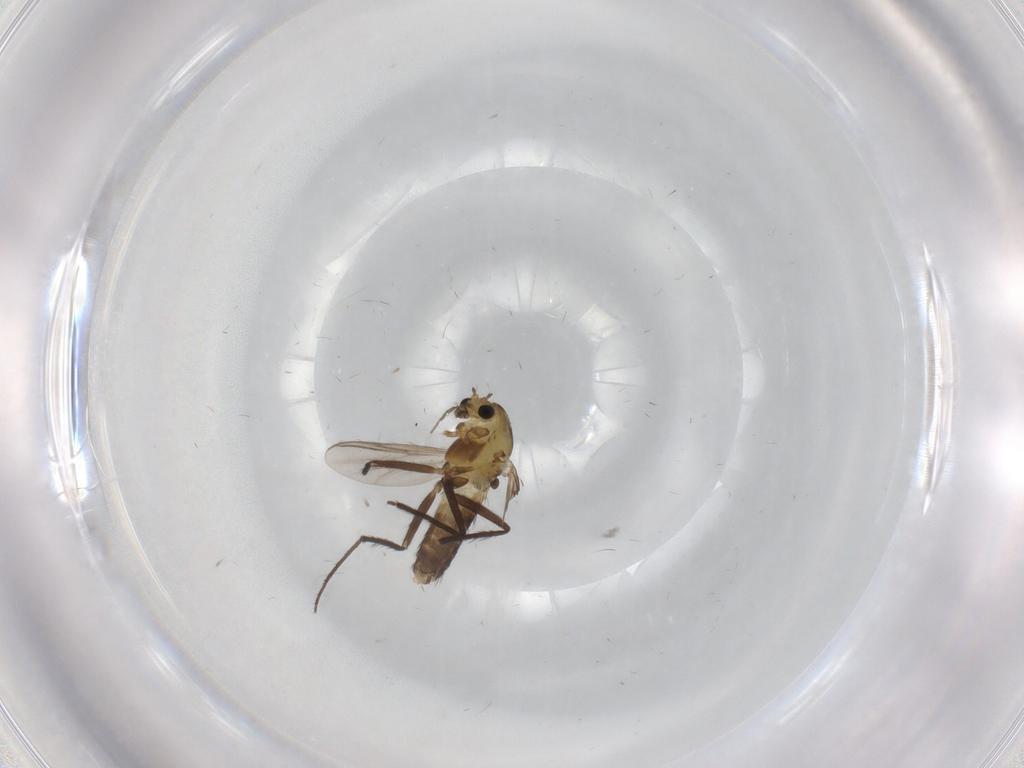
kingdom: Animalia
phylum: Arthropoda
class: Insecta
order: Diptera
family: Chironomidae
